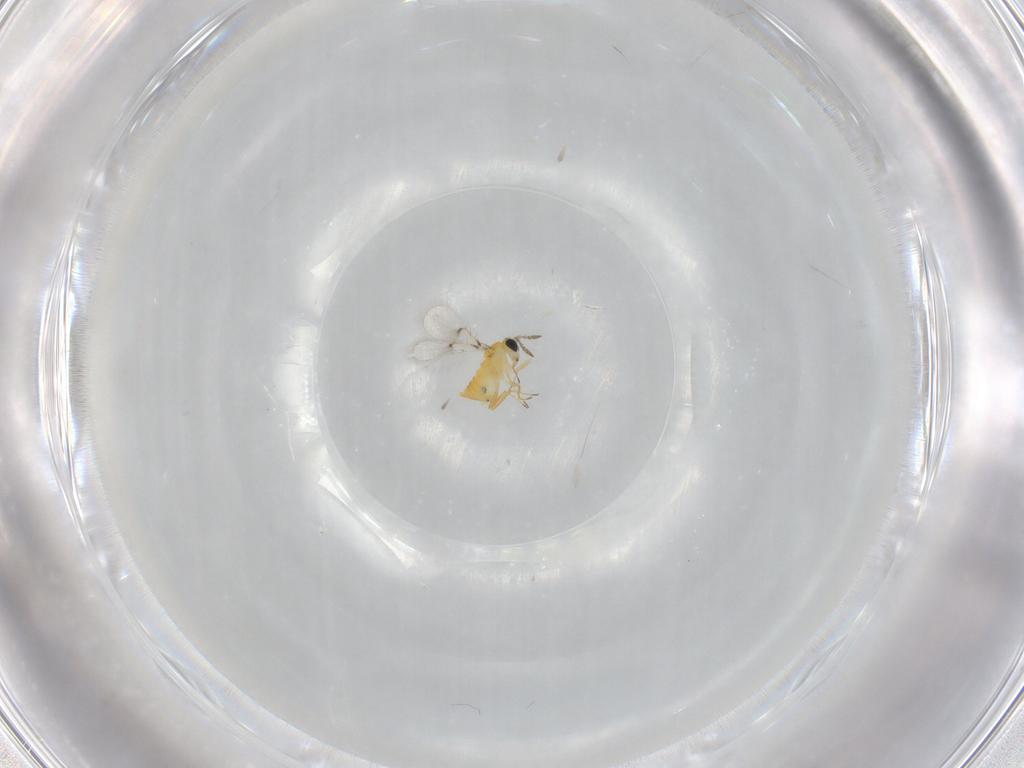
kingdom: Animalia
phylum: Arthropoda
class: Insecta
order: Hymenoptera
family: Trichogrammatidae
